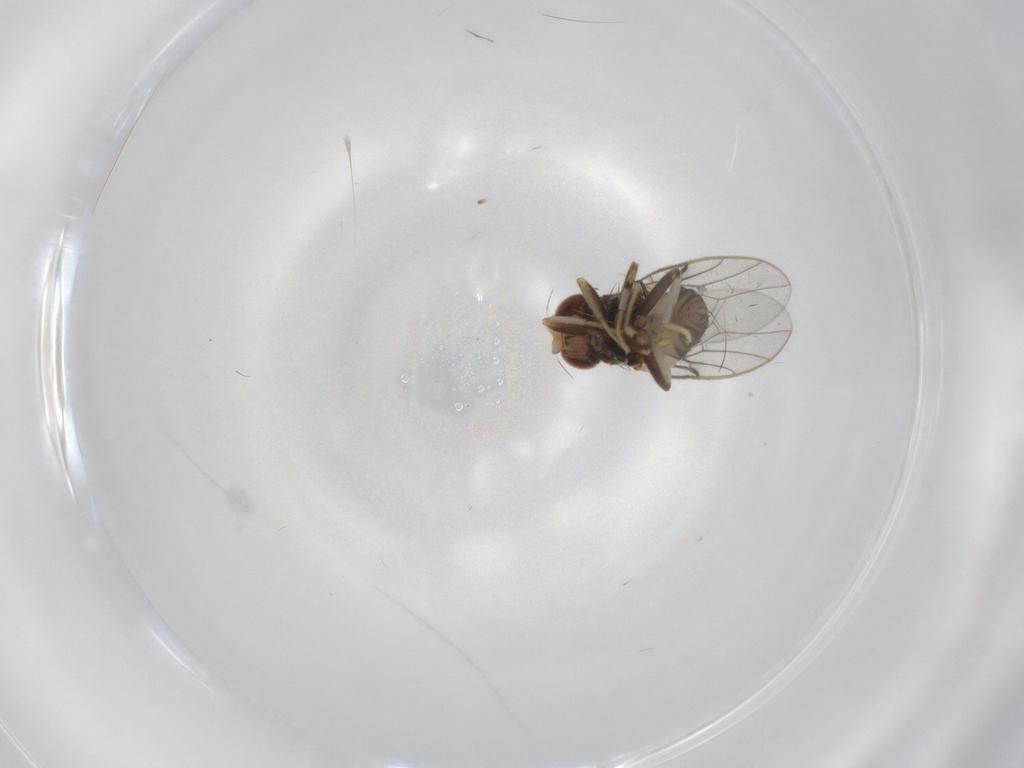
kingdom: Animalia
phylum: Arthropoda
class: Insecta
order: Diptera
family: Chloropidae
